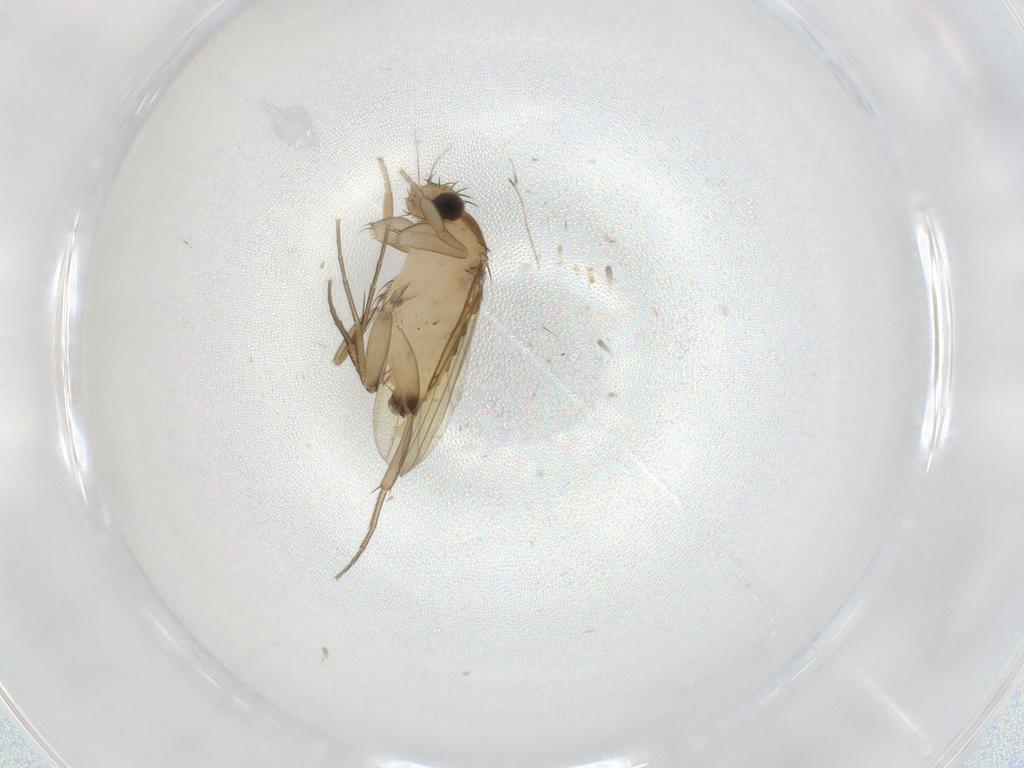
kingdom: Animalia
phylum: Arthropoda
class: Insecta
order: Diptera
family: Phoridae
